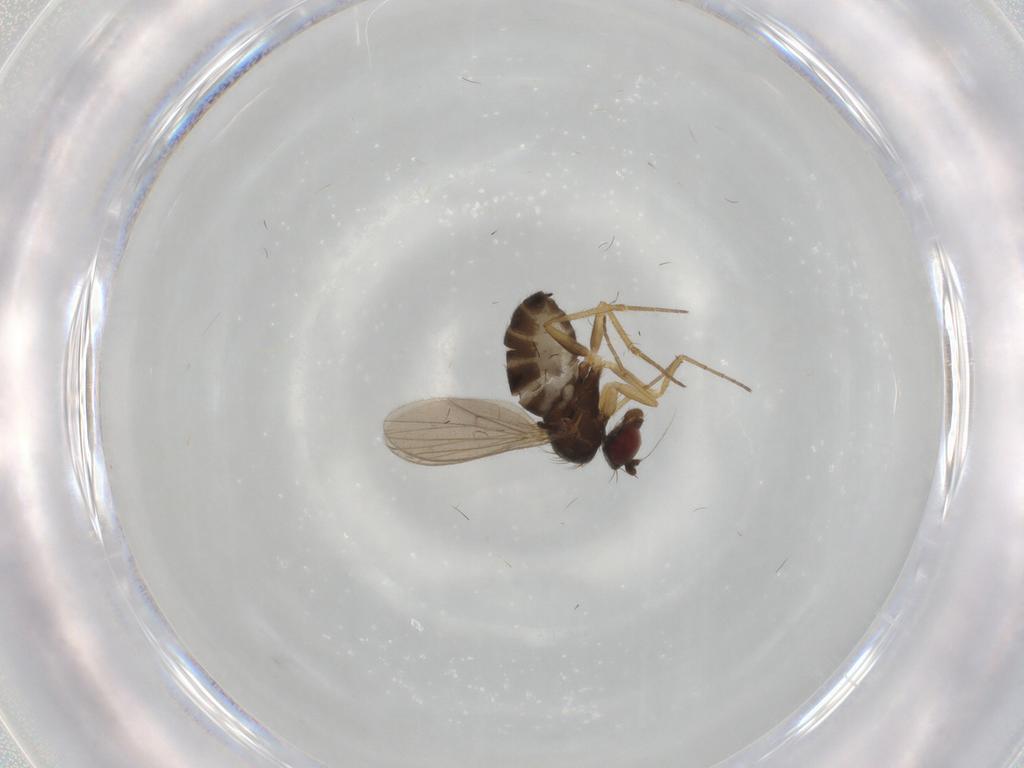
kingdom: Animalia
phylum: Arthropoda
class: Insecta
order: Diptera
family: Dolichopodidae
